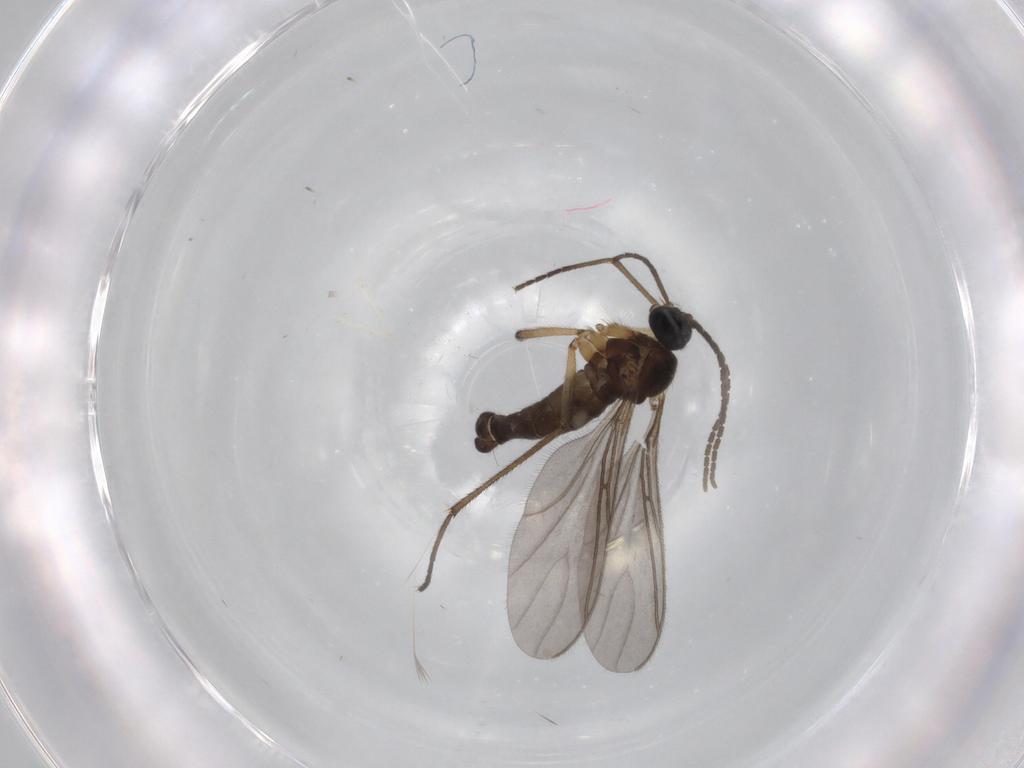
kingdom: Animalia
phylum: Arthropoda
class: Insecta
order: Diptera
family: Sciaridae
